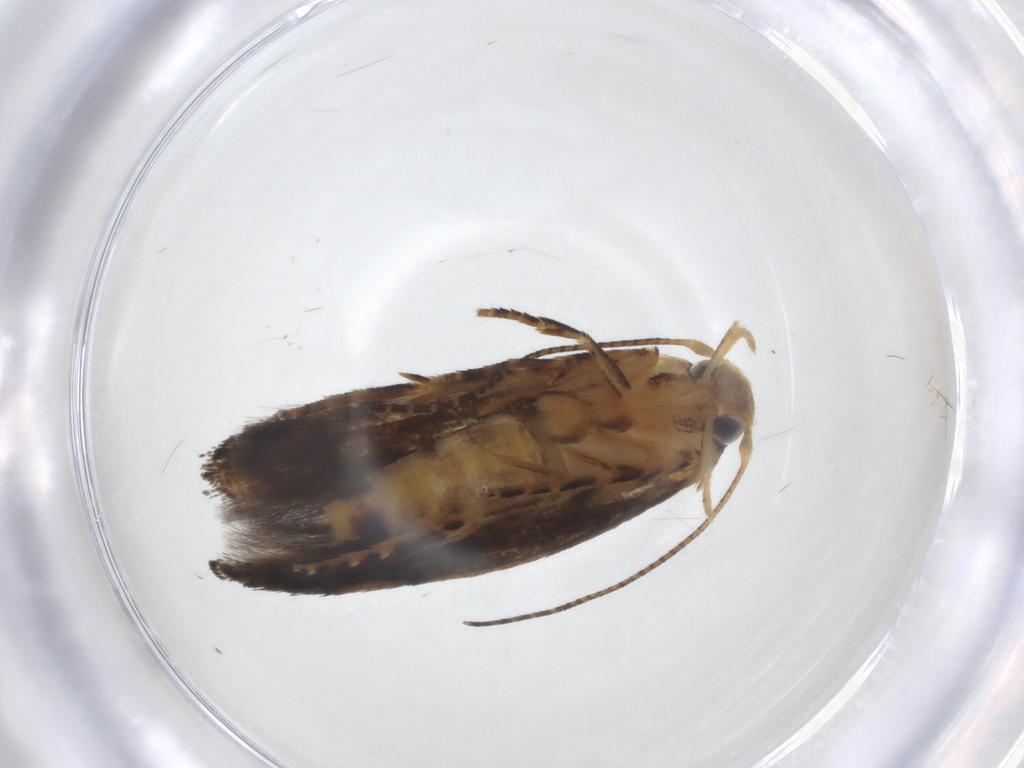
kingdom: Animalia
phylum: Arthropoda
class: Insecta
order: Lepidoptera
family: Momphidae
